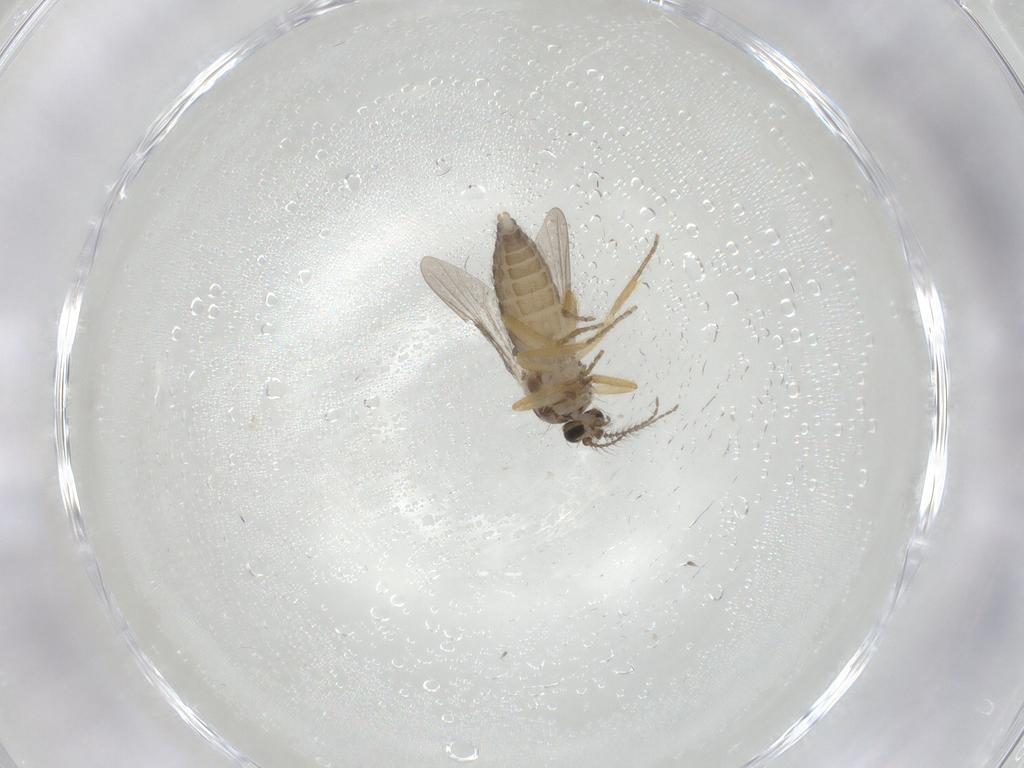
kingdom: Animalia
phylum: Arthropoda
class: Insecta
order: Diptera
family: Ceratopogonidae
